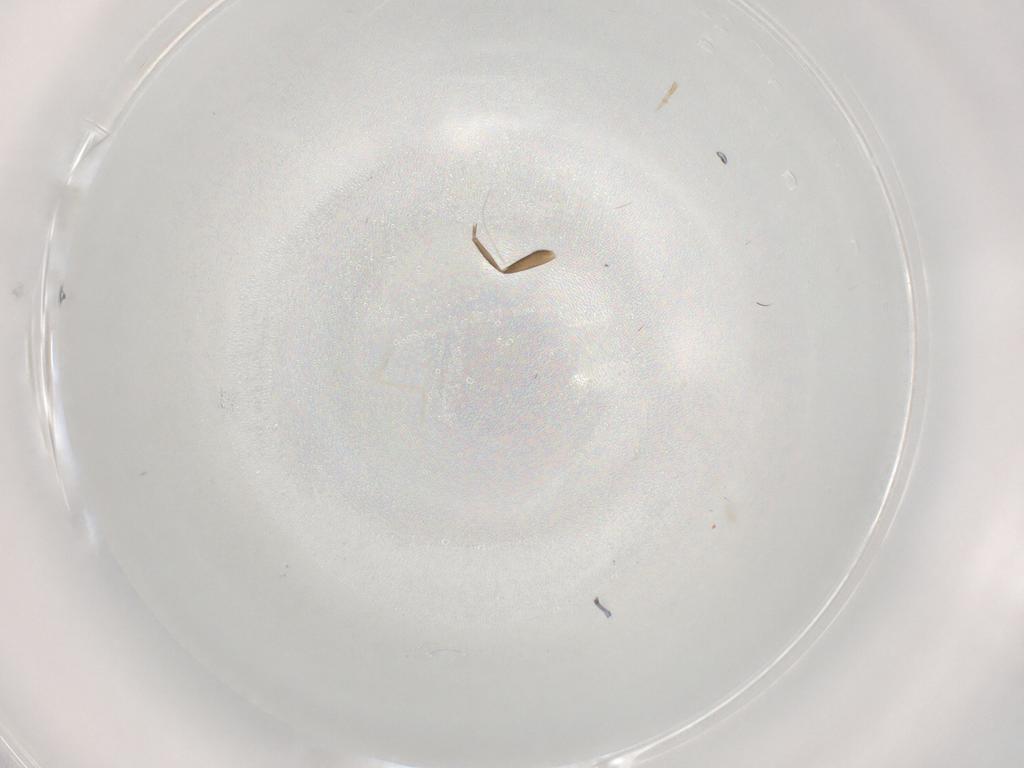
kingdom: Animalia
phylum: Arthropoda
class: Insecta
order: Diptera
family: Phoridae
